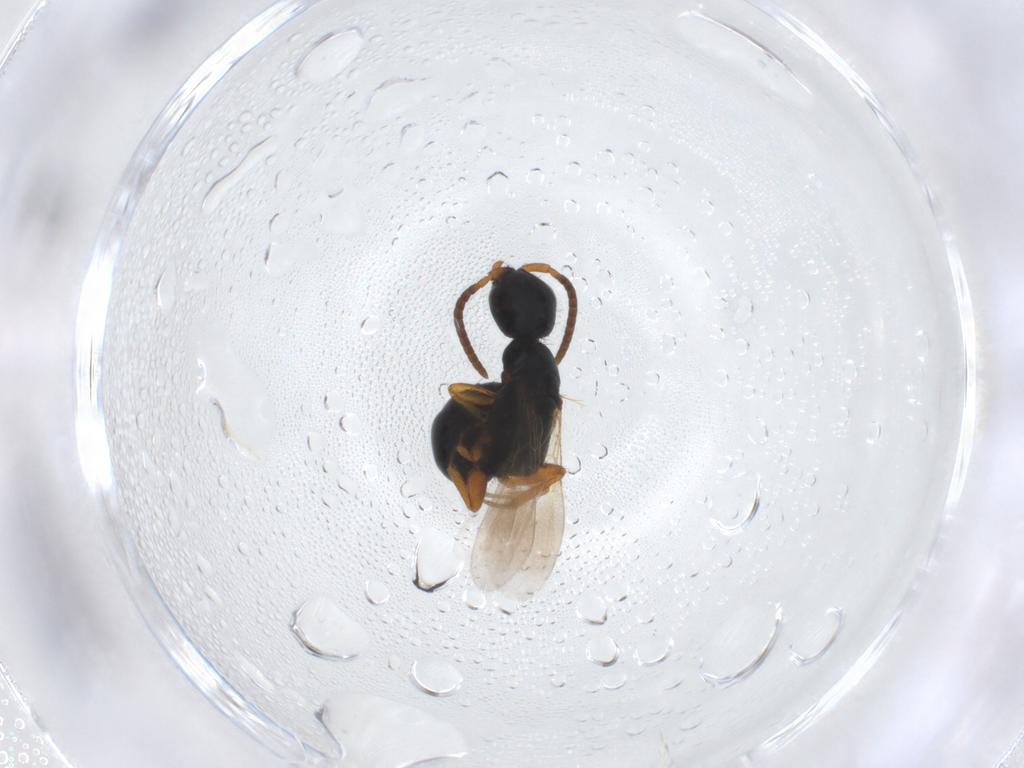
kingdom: Animalia
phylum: Arthropoda
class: Insecta
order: Hymenoptera
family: Bethylidae
